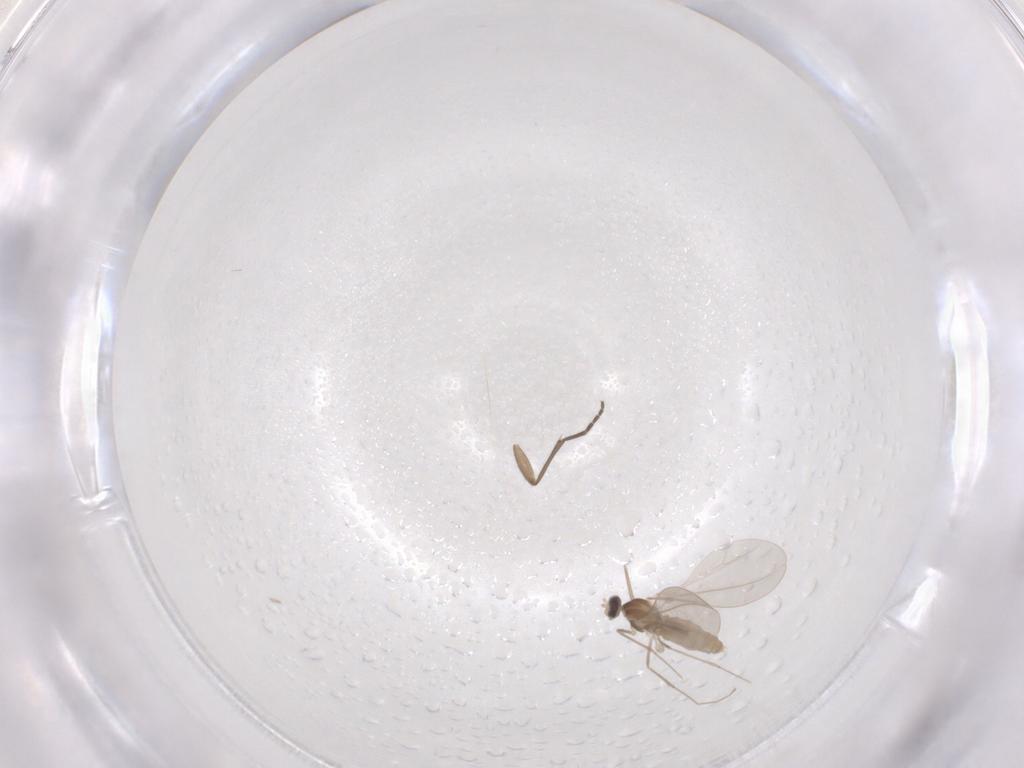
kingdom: Animalia
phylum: Arthropoda
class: Insecta
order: Diptera
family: Cecidomyiidae
